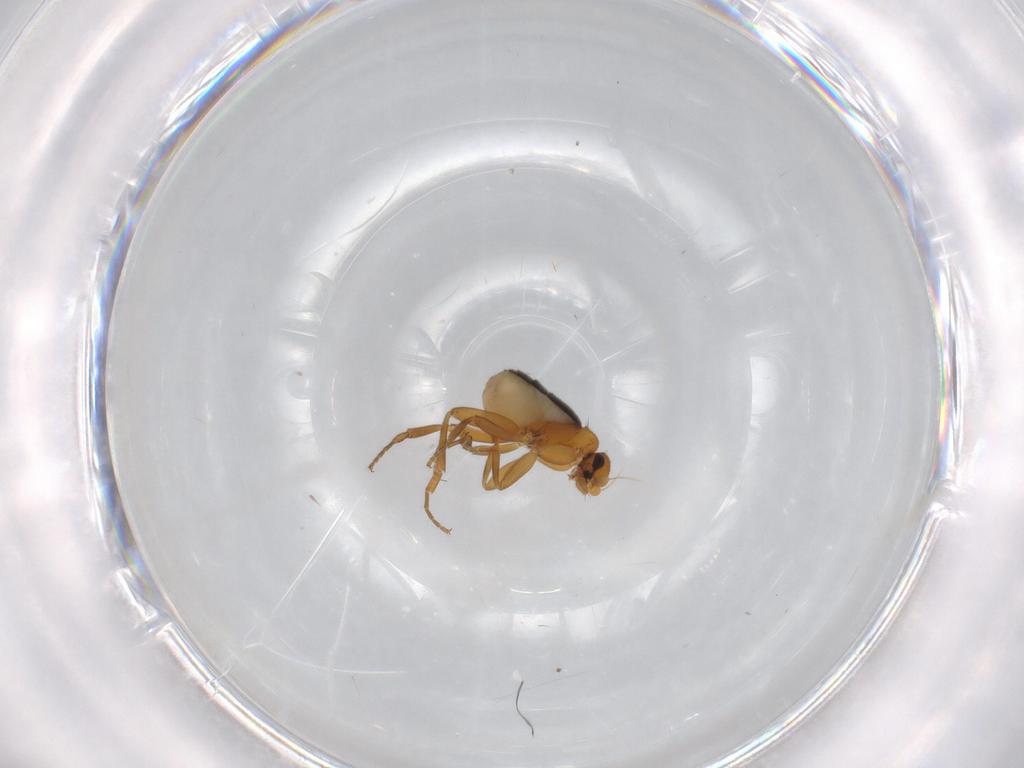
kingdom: Animalia
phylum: Arthropoda
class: Insecta
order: Diptera
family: Phoridae
